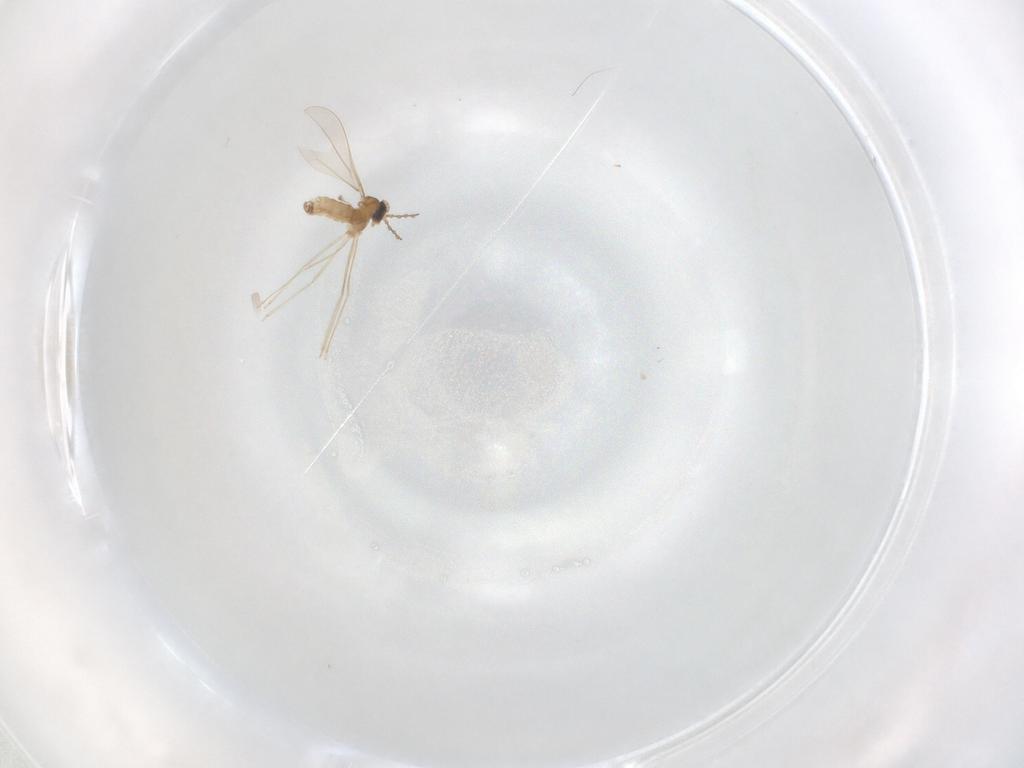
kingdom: Animalia
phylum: Arthropoda
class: Insecta
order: Diptera
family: Cecidomyiidae
